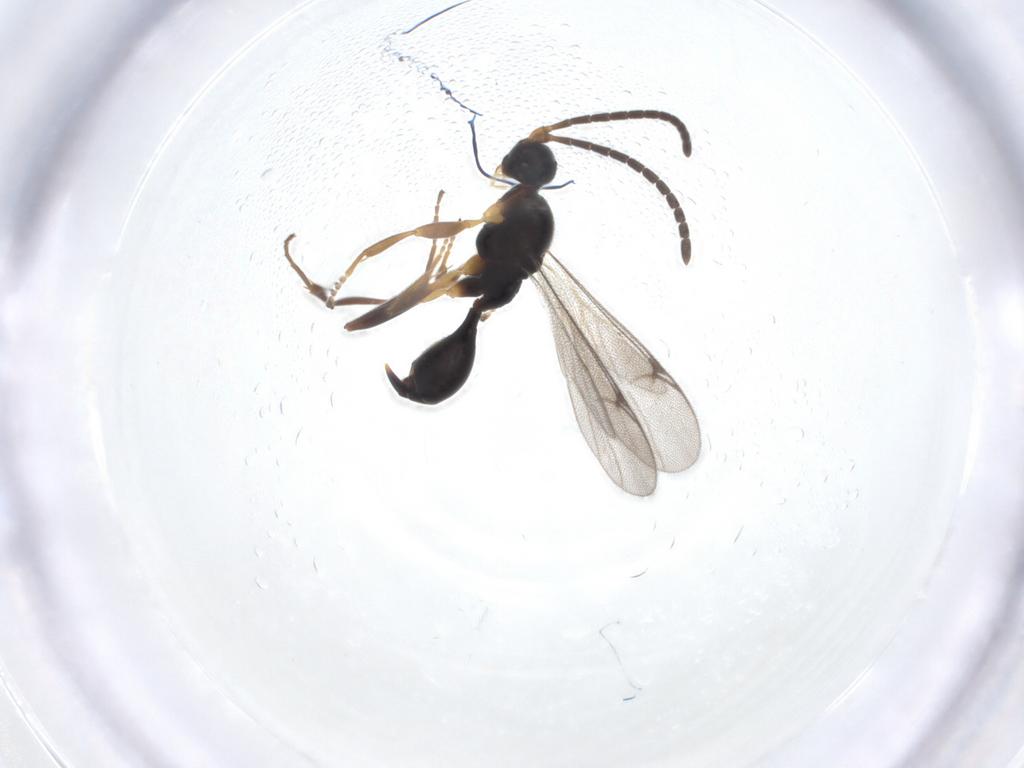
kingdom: Animalia
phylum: Arthropoda
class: Insecta
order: Hymenoptera
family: Proctotrupidae
